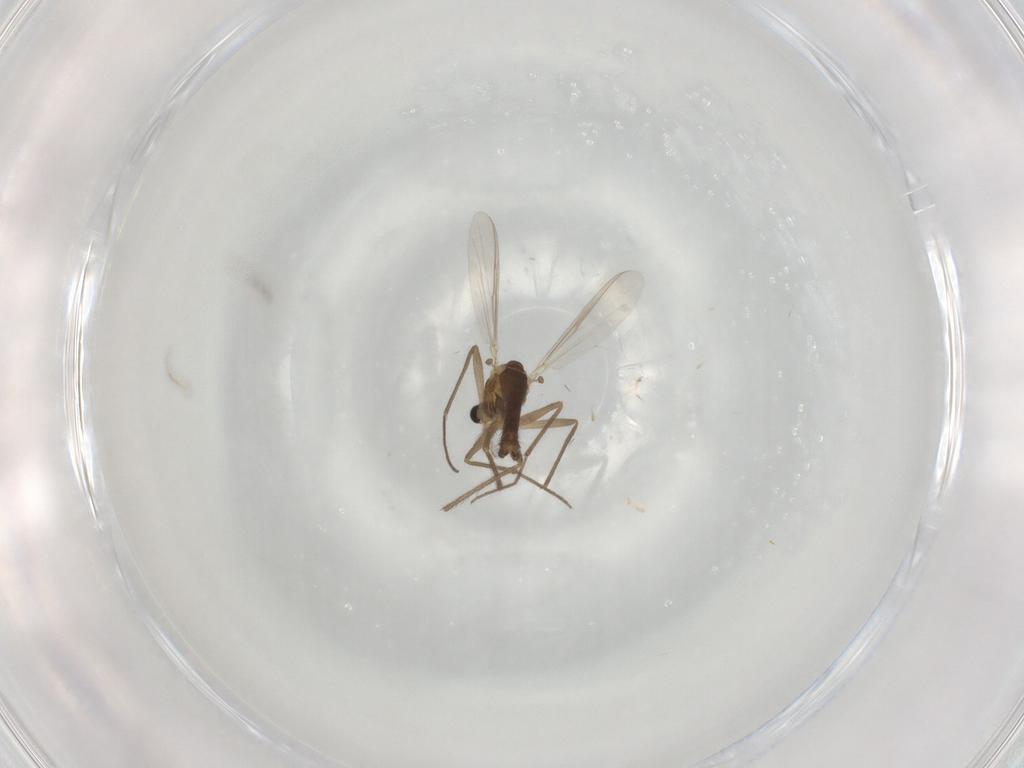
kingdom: Animalia
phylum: Arthropoda
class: Insecta
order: Diptera
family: Chironomidae
